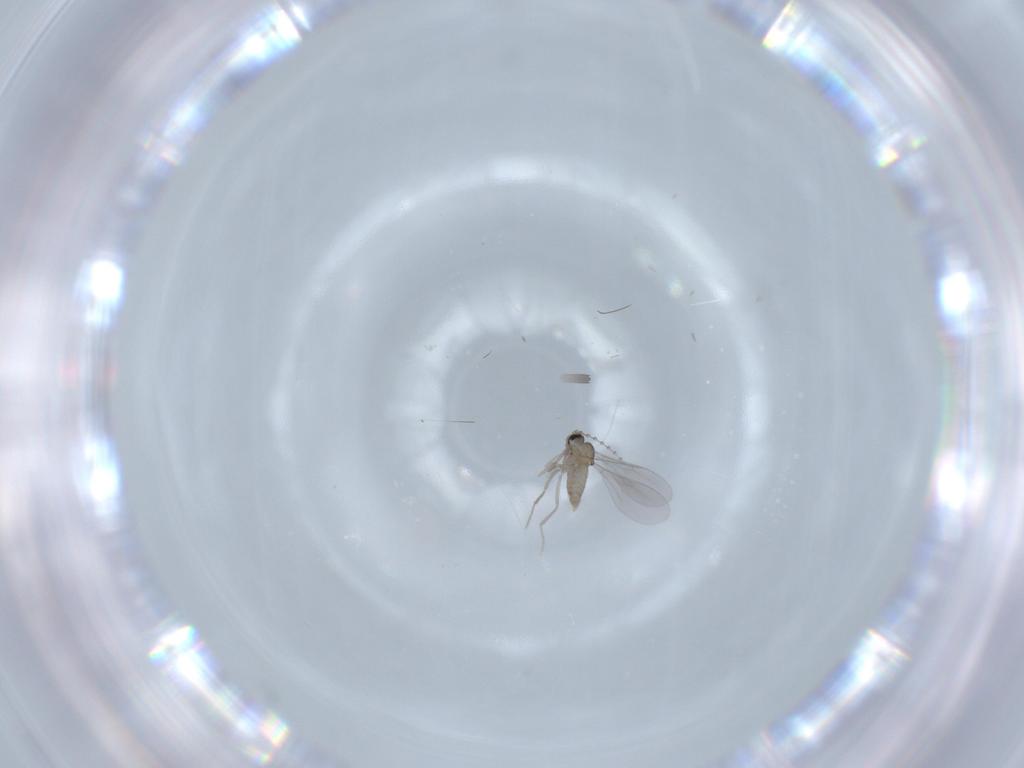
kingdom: Animalia
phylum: Arthropoda
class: Insecta
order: Diptera
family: Cecidomyiidae
